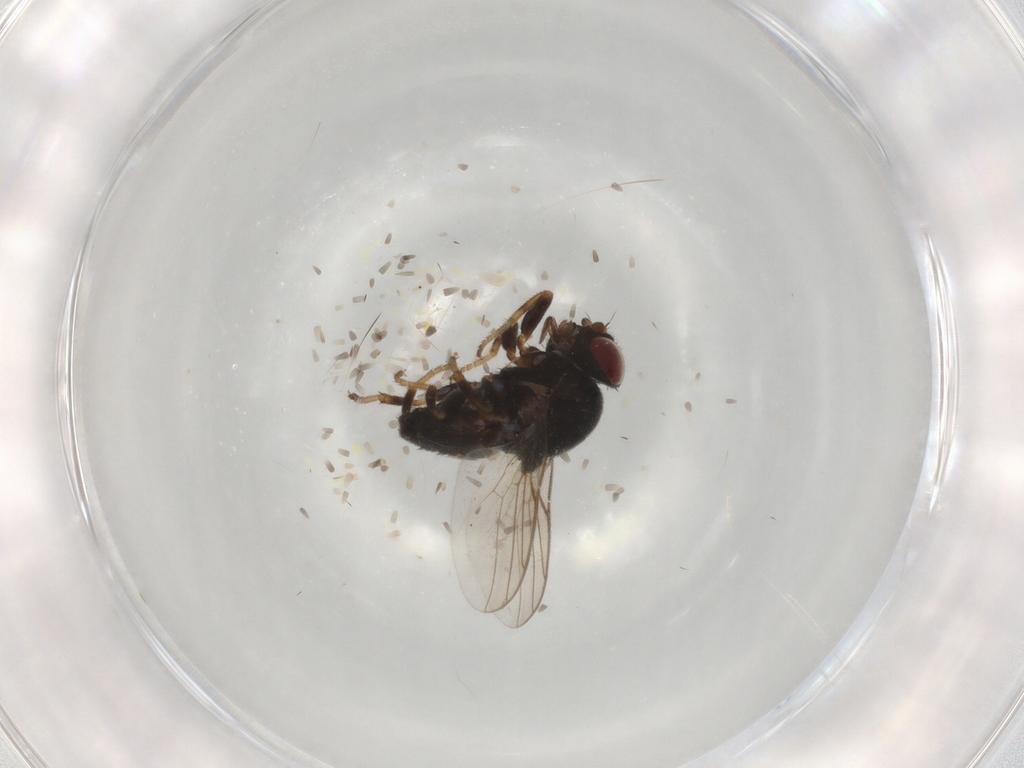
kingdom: Animalia
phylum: Arthropoda
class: Insecta
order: Diptera
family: Chloropidae
